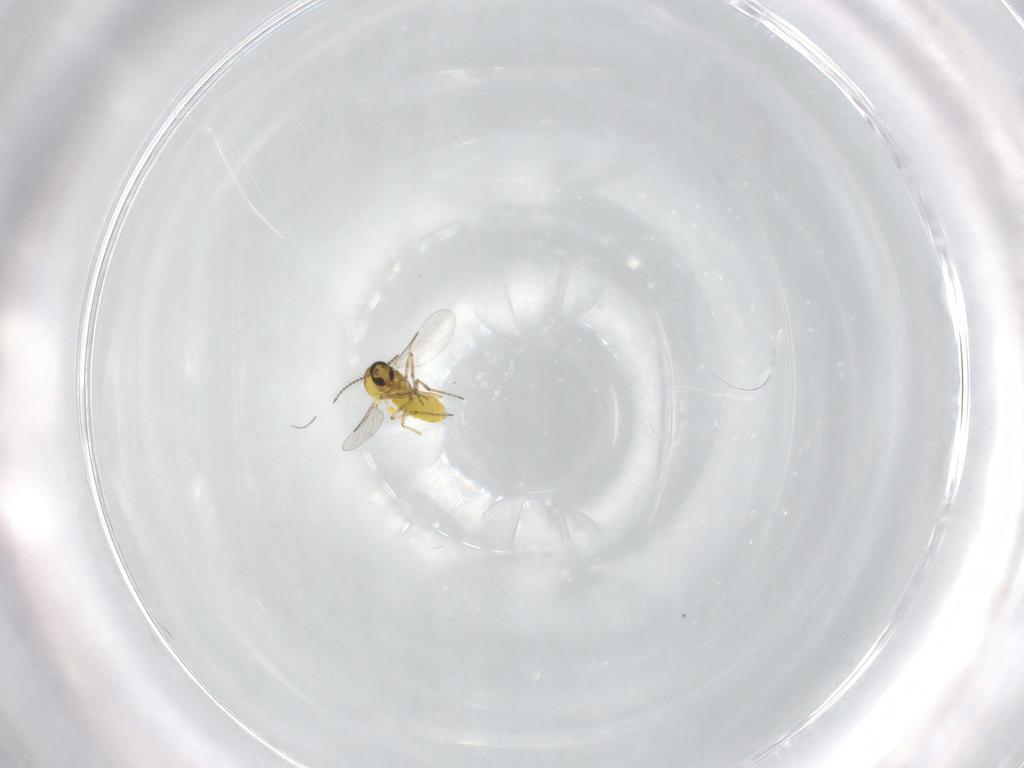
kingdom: Animalia
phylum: Arthropoda
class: Insecta
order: Diptera
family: Ceratopogonidae
